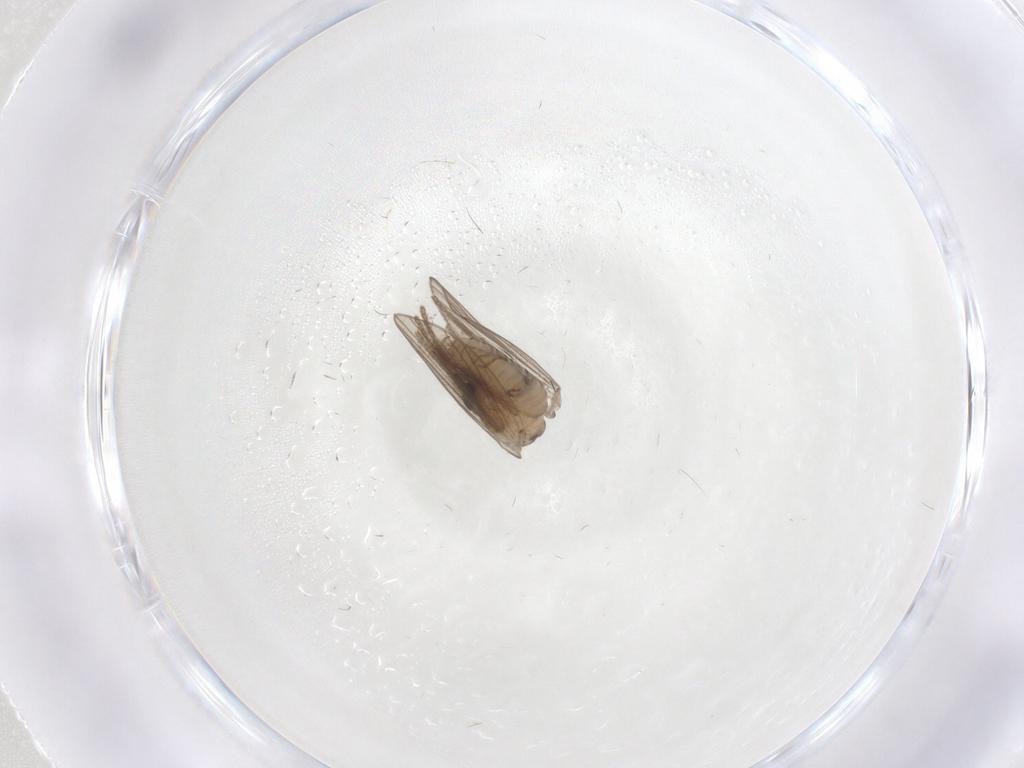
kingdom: Animalia
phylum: Arthropoda
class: Insecta
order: Diptera
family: Psychodidae
